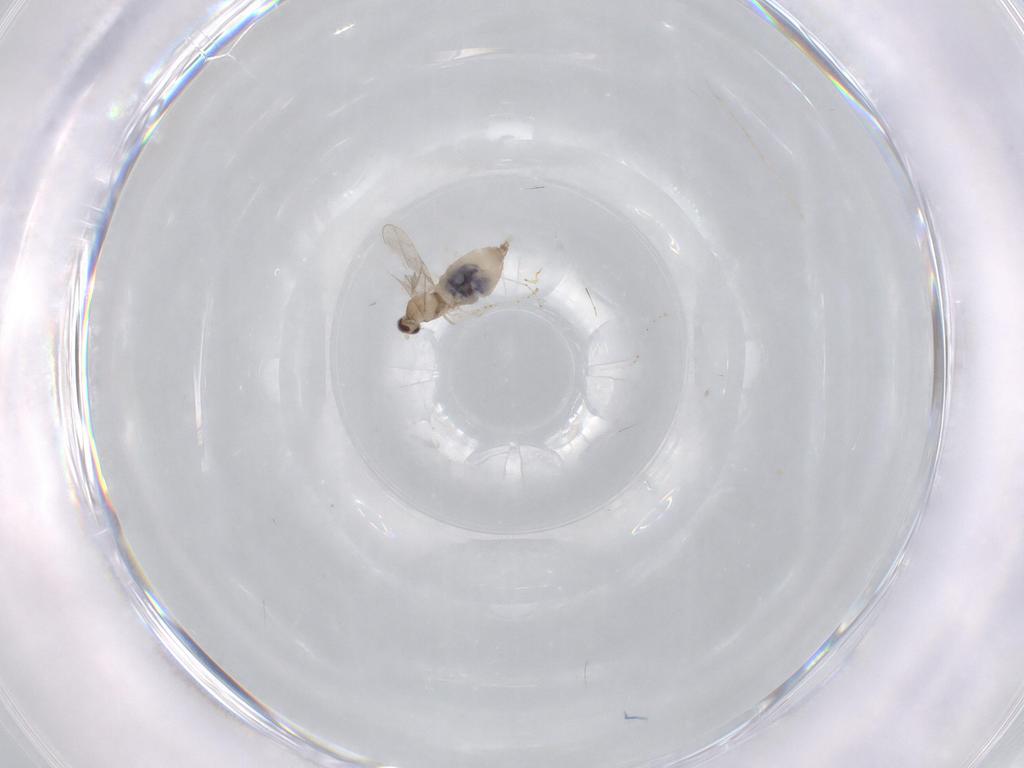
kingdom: Animalia
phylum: Arthropoda
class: Insecta
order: Diptera
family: Cecidomyiidae
